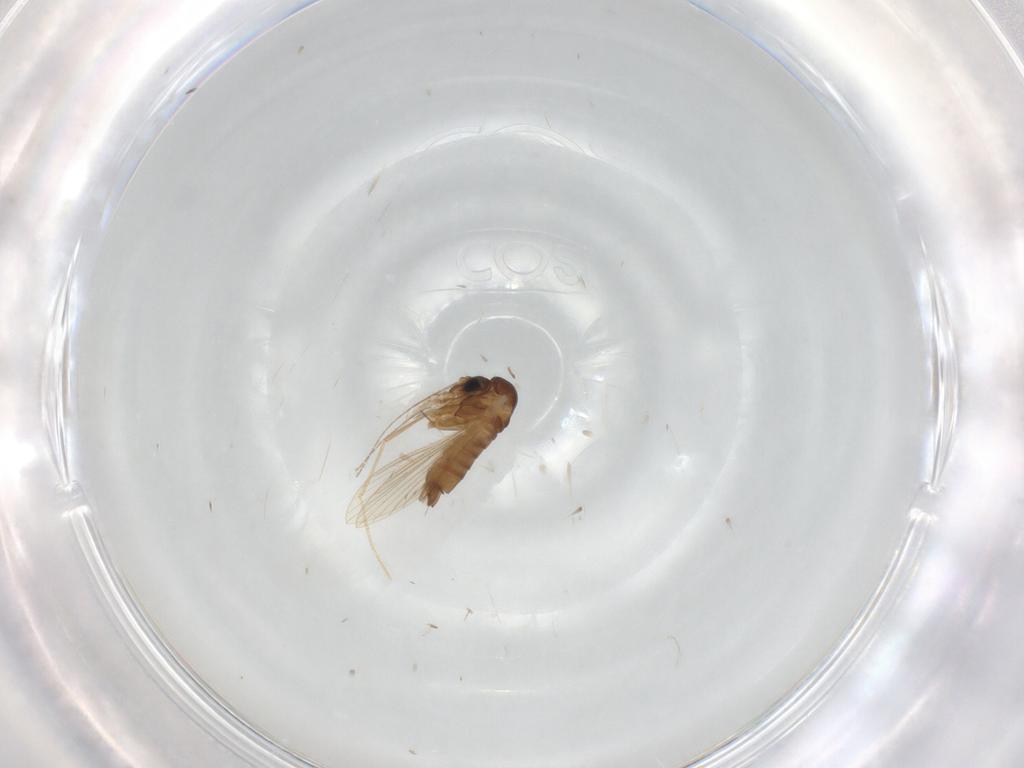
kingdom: Animalia
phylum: Arthropoda
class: Insecta
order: Diptera
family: Psychodidae
